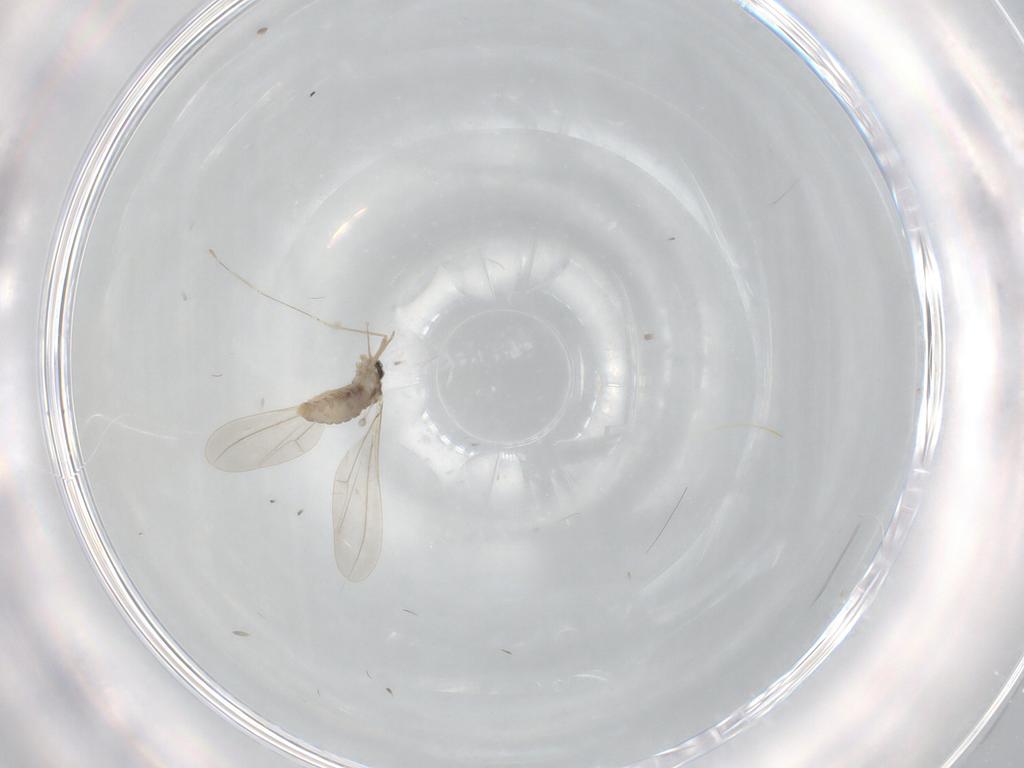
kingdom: Animalia
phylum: Arthropoda
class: Insecta
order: Diptera
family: Cecidomyiidae
